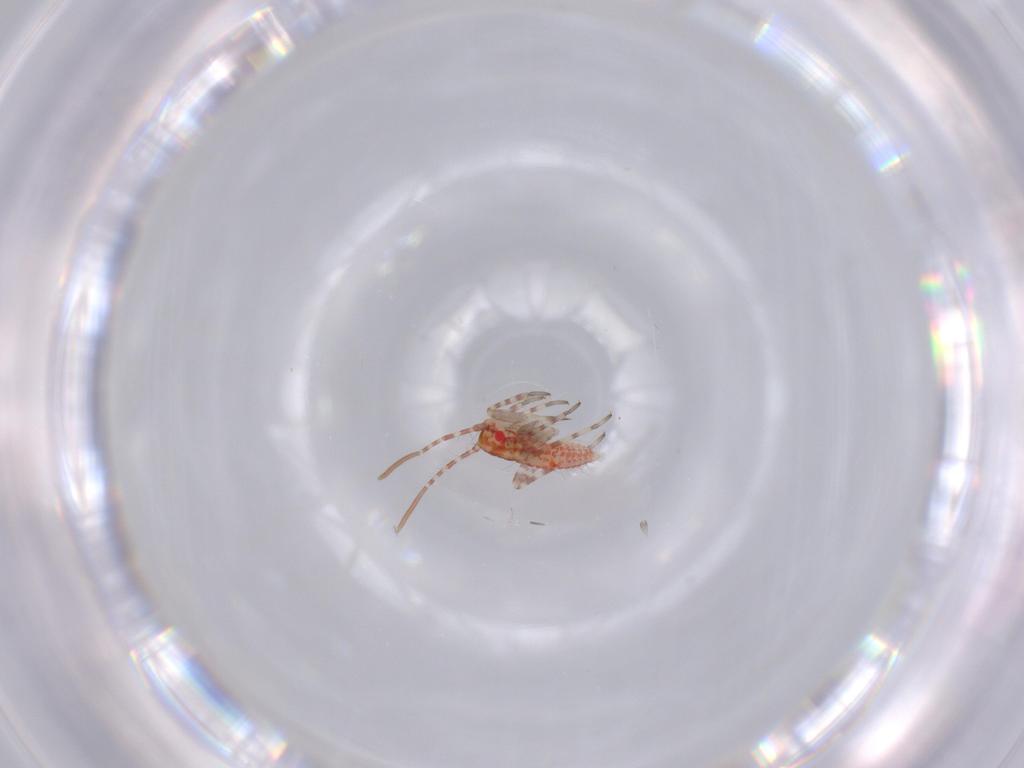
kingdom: Animalia
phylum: Arthropoda
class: Insecta
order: Hemiptera
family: Miridae
